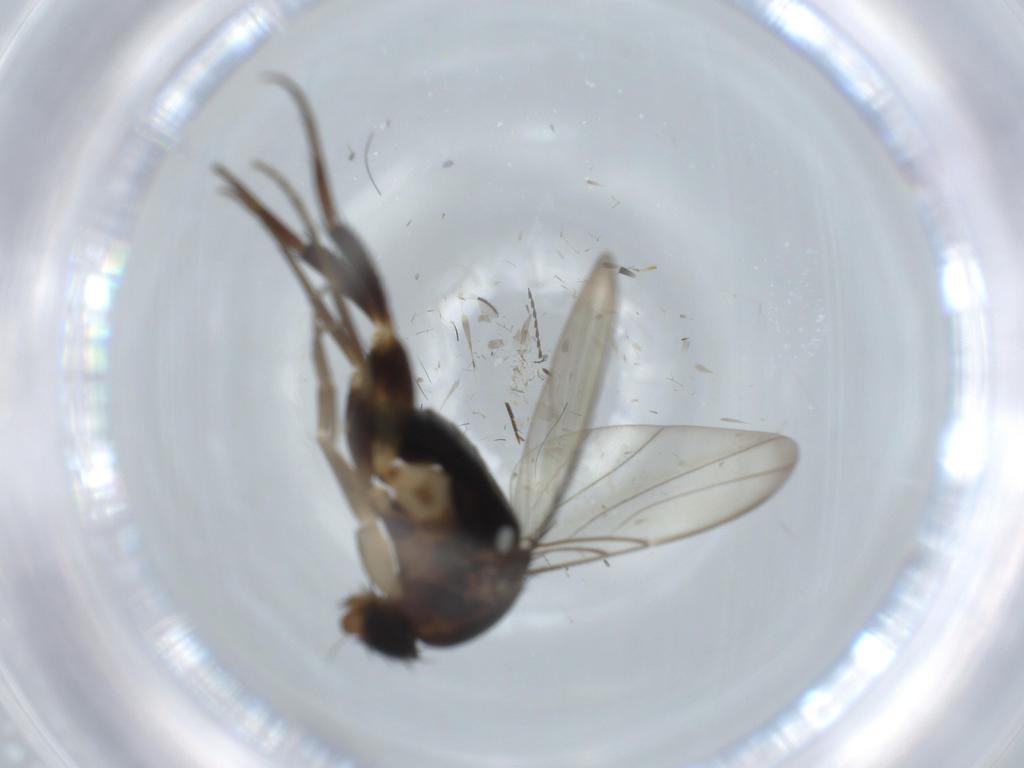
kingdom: Animalia
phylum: Arthropoda
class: Insecta
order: Diptera
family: Phoridae
